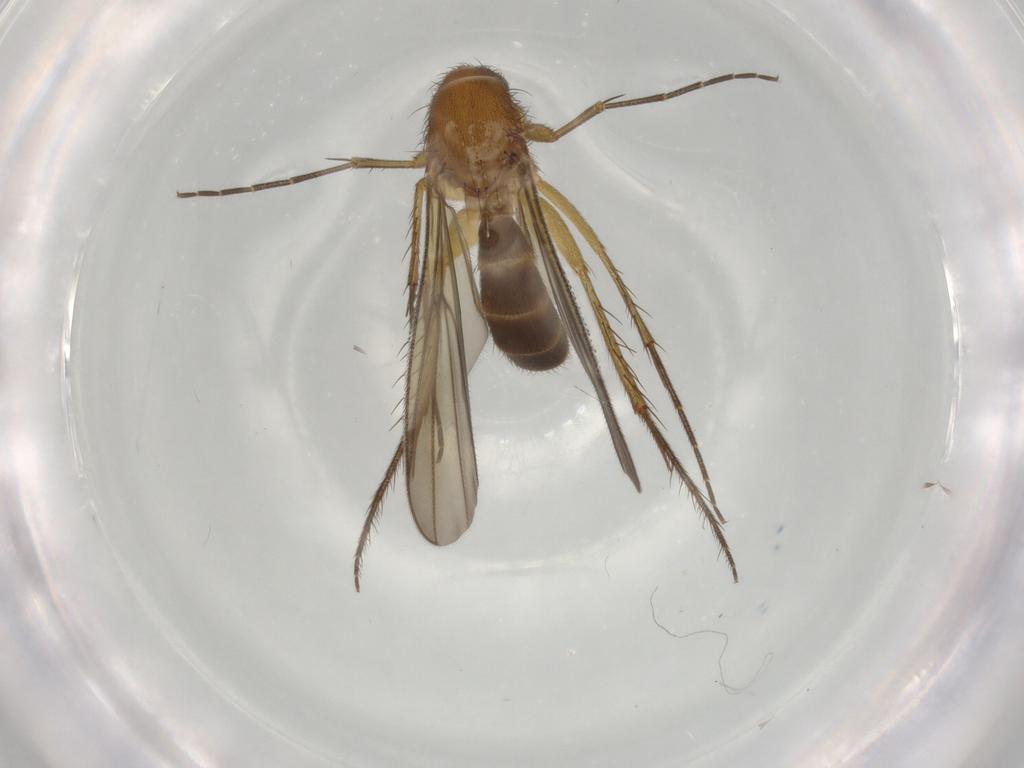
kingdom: Animalia
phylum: Arthropoda
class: Insecta
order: Diptera
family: Mycetophilidae
